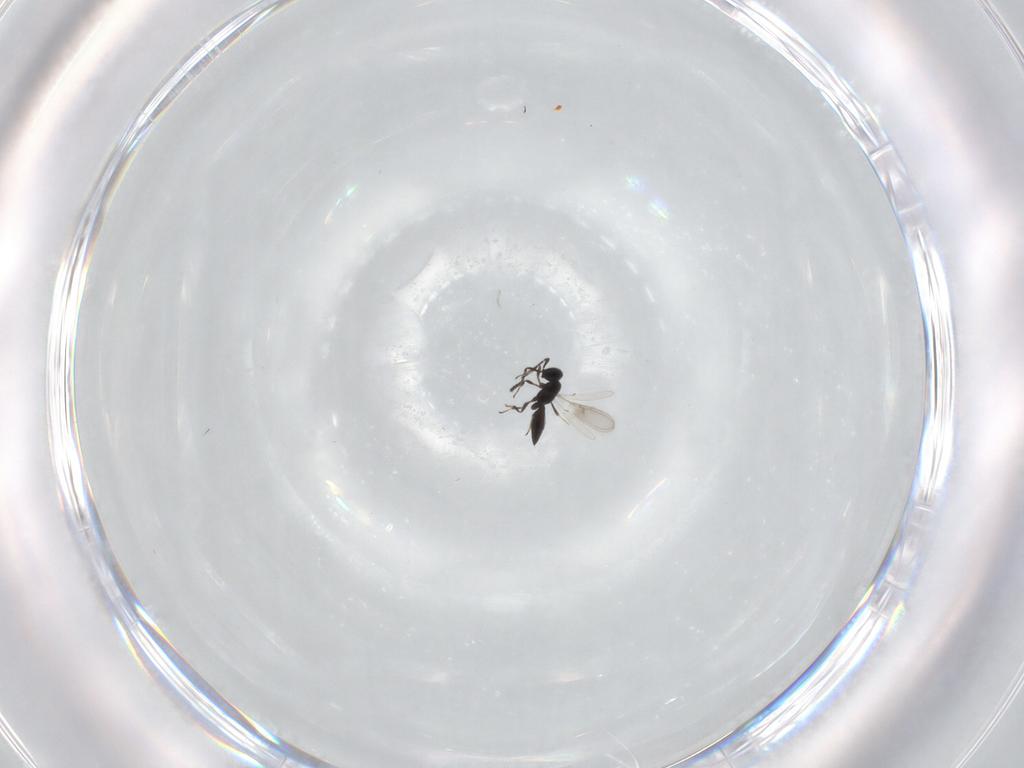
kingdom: Animalia
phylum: Arthropoda
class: Insecta
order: Hymenoptera
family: Scelionidae
